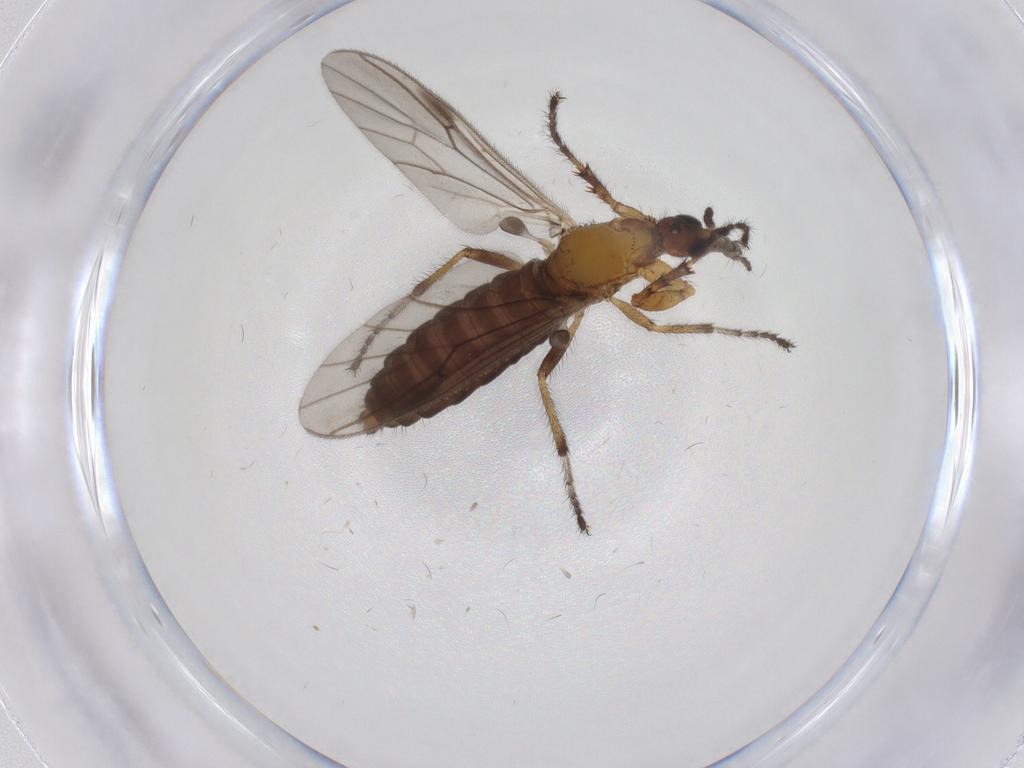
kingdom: Animalia
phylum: Arthropoda
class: Insecta
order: Diptera
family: Bibionidae
